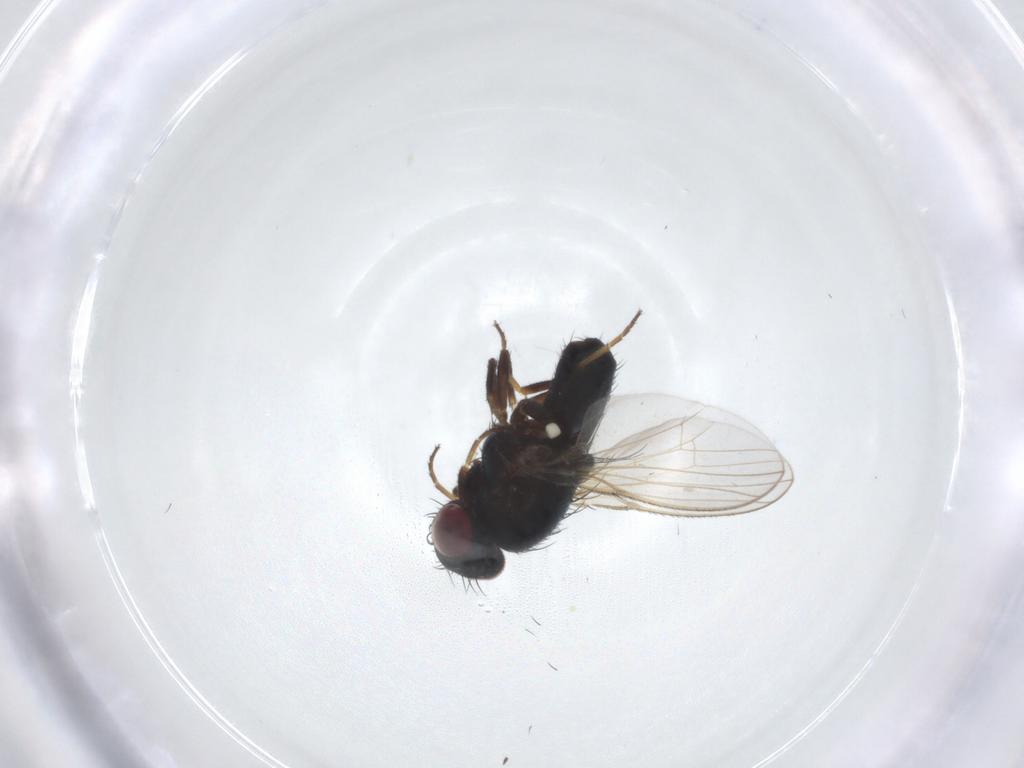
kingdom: Animalia
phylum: Arthropoda
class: Insecta
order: Diptera
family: Carnidae
